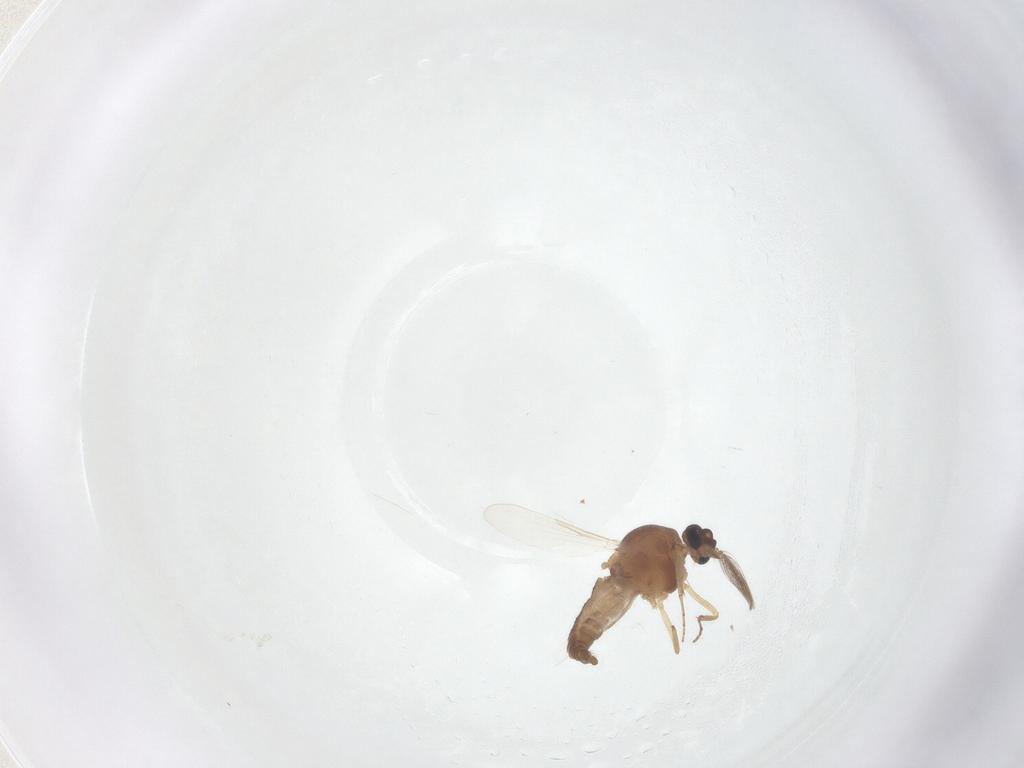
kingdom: Animalia
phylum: Arthropoda
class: Insecta
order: Diptera
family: Ceratopogonidae
